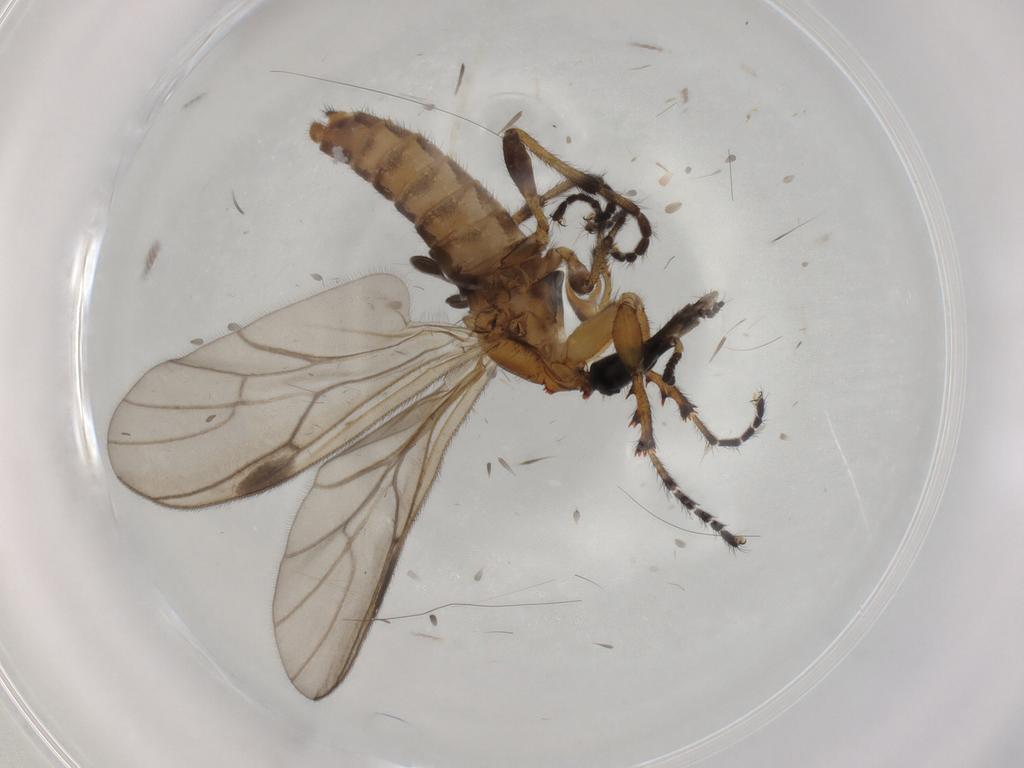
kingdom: Animalia
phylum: Arthropoda
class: Insecta
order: Diptera
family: Bibionidae
